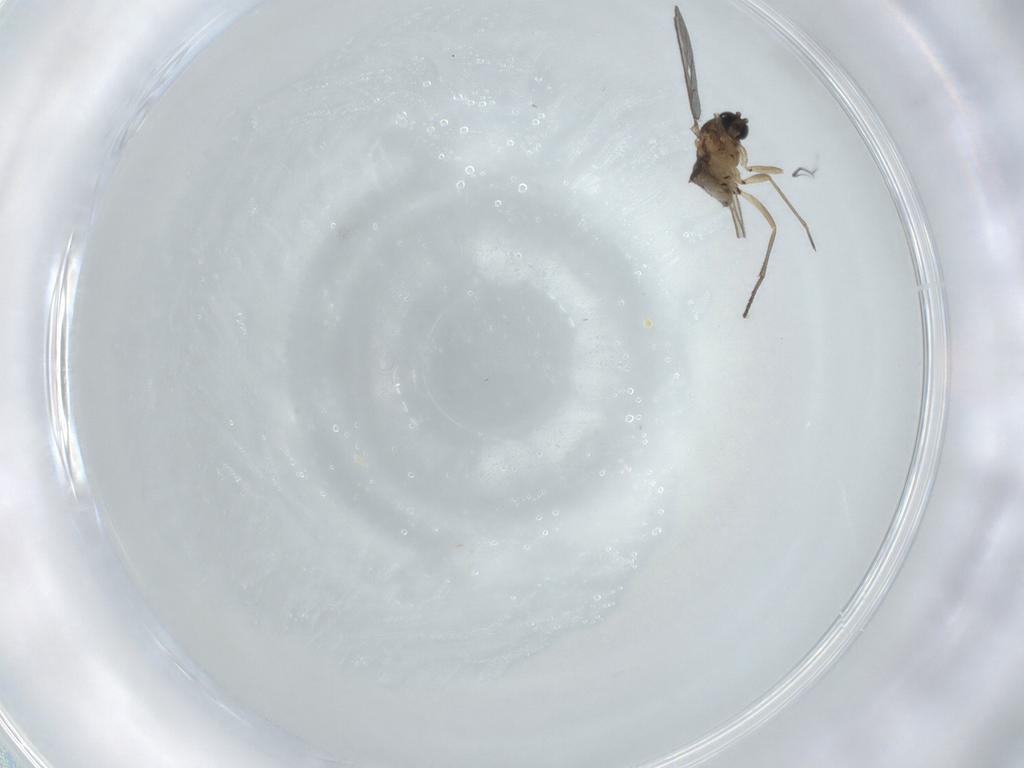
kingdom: Animalia
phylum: Arthropoda
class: Insecta
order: Diptera
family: Sciaridae
